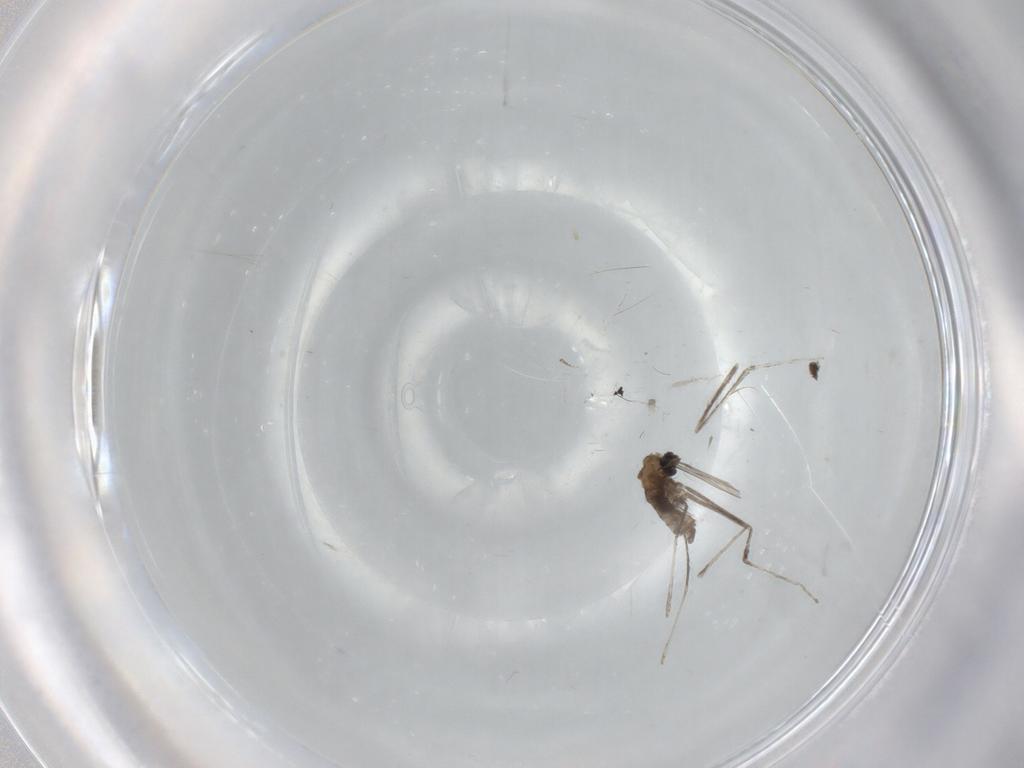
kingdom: Animalia
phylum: Arthropoda
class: Insecta
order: Diptera
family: Cecidomyiidae
